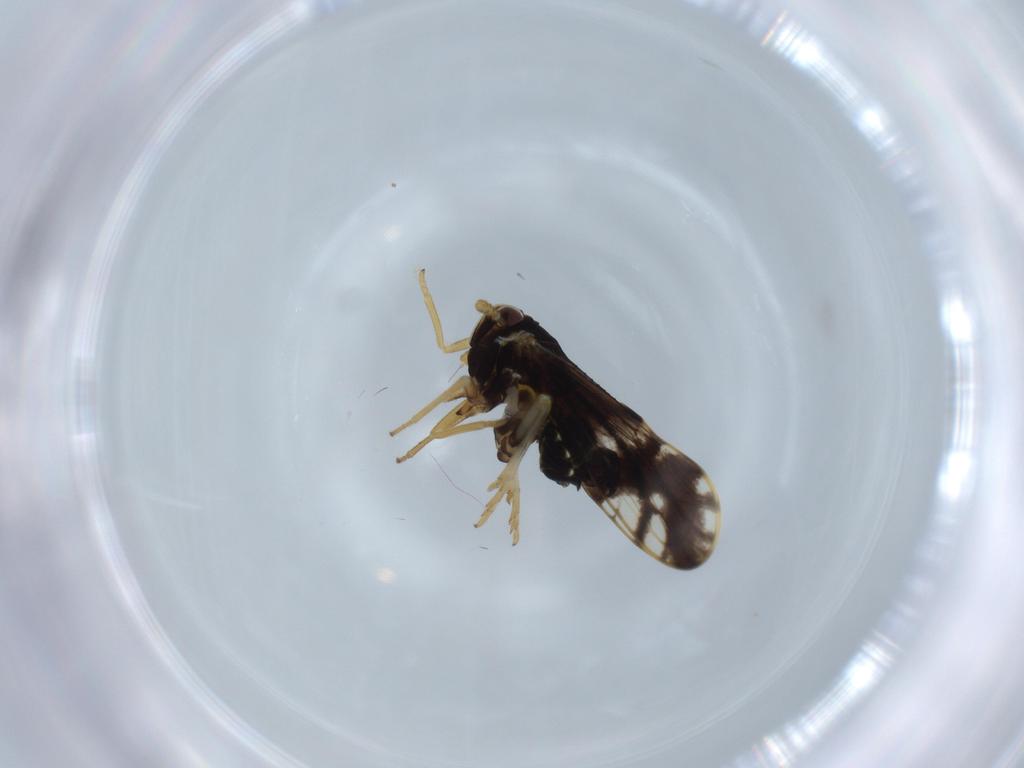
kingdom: Animalia
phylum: Arthropoda
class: Insecta
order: Hemiptera
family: Delphacidae
